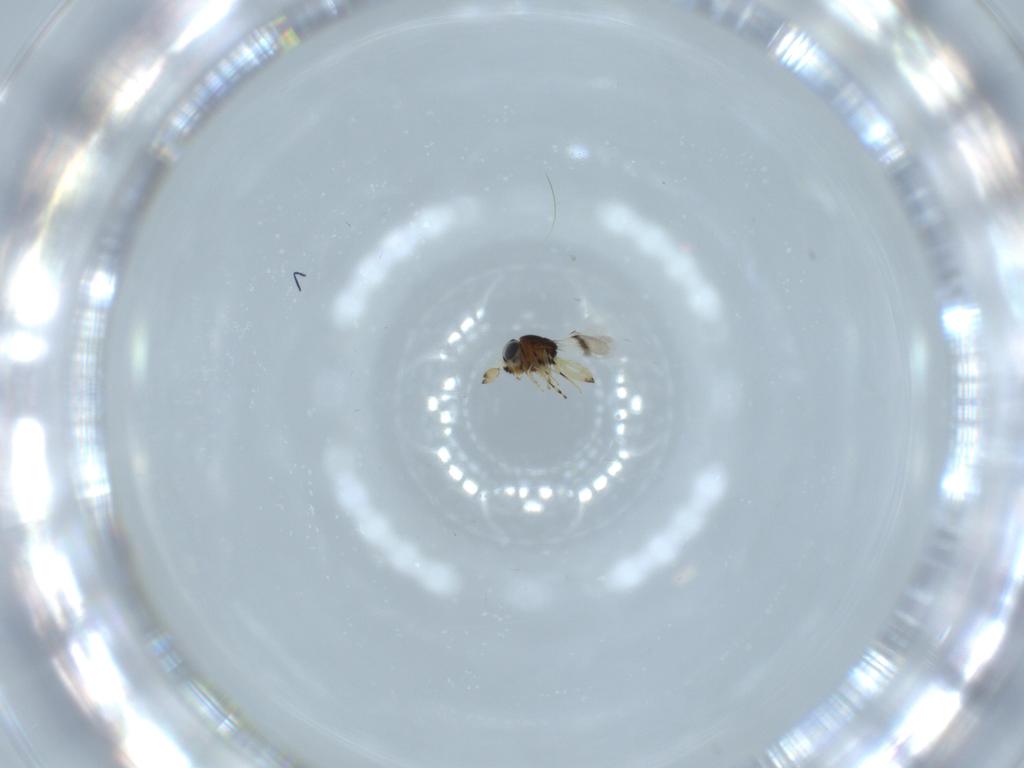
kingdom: Animalia
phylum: Arthropoda
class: Insecta
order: Hymenoptera
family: Scelionidae
